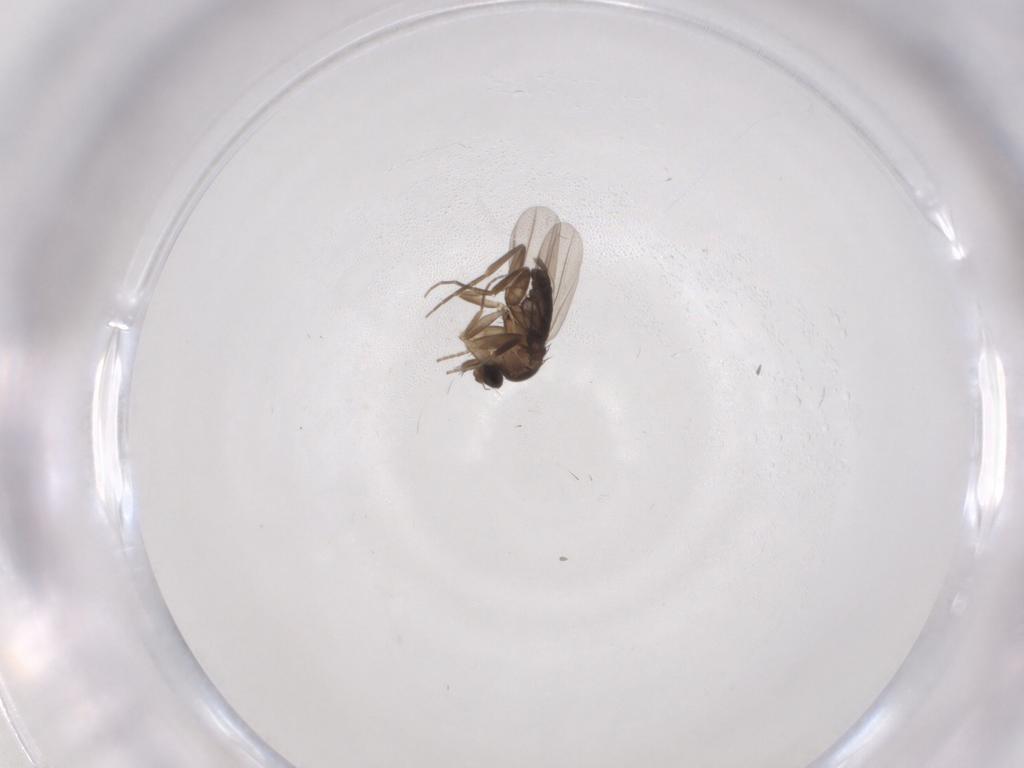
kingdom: Animalia
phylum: Arthropoda
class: Insecta
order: Diptera
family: Phoridae
